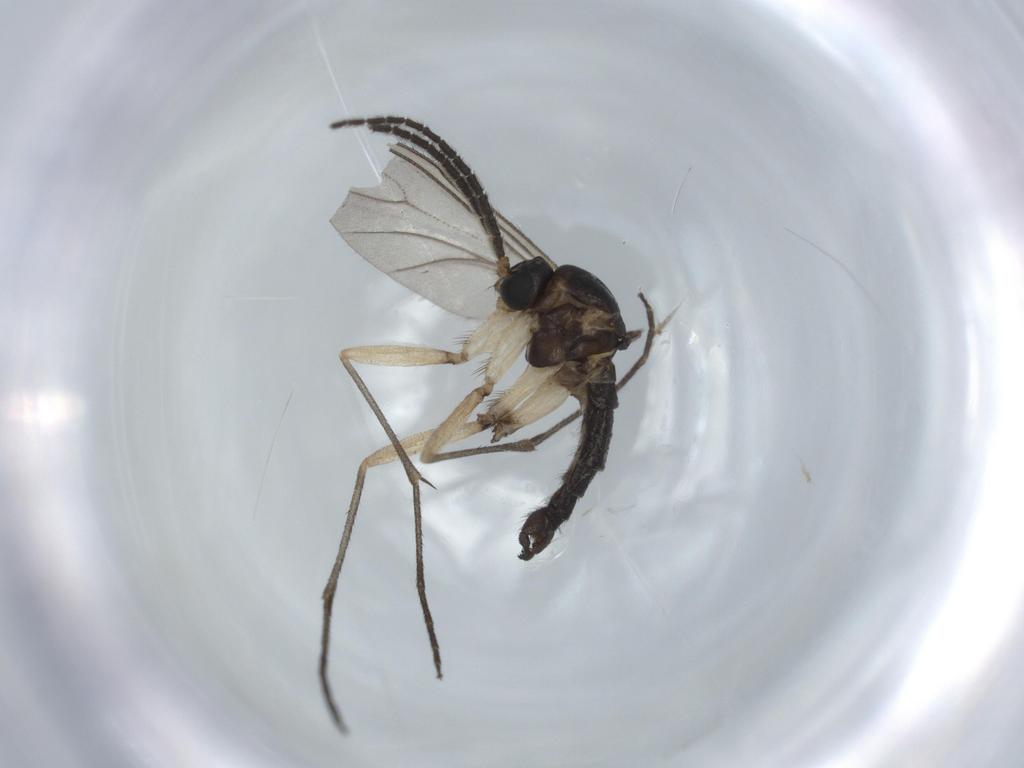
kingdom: Animalia
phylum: Arthropoda
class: Insecta
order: Diptera
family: Sciaridae
